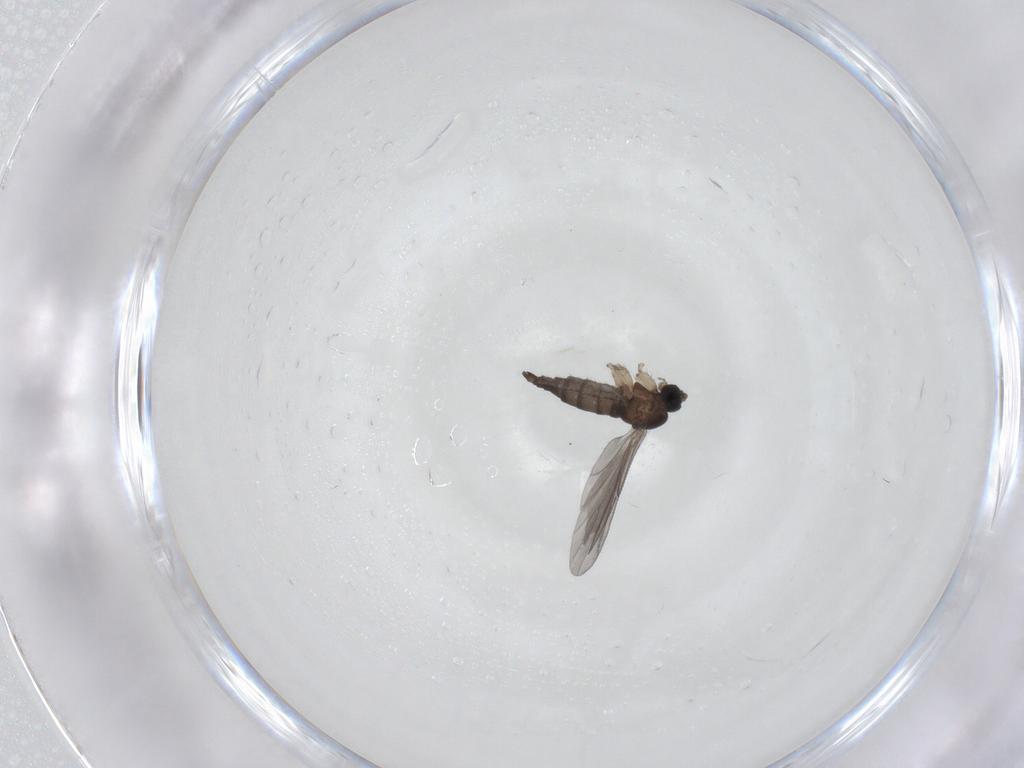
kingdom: Animalia
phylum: Arthropoda
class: Insecta
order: Diptera
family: Sciaridae
